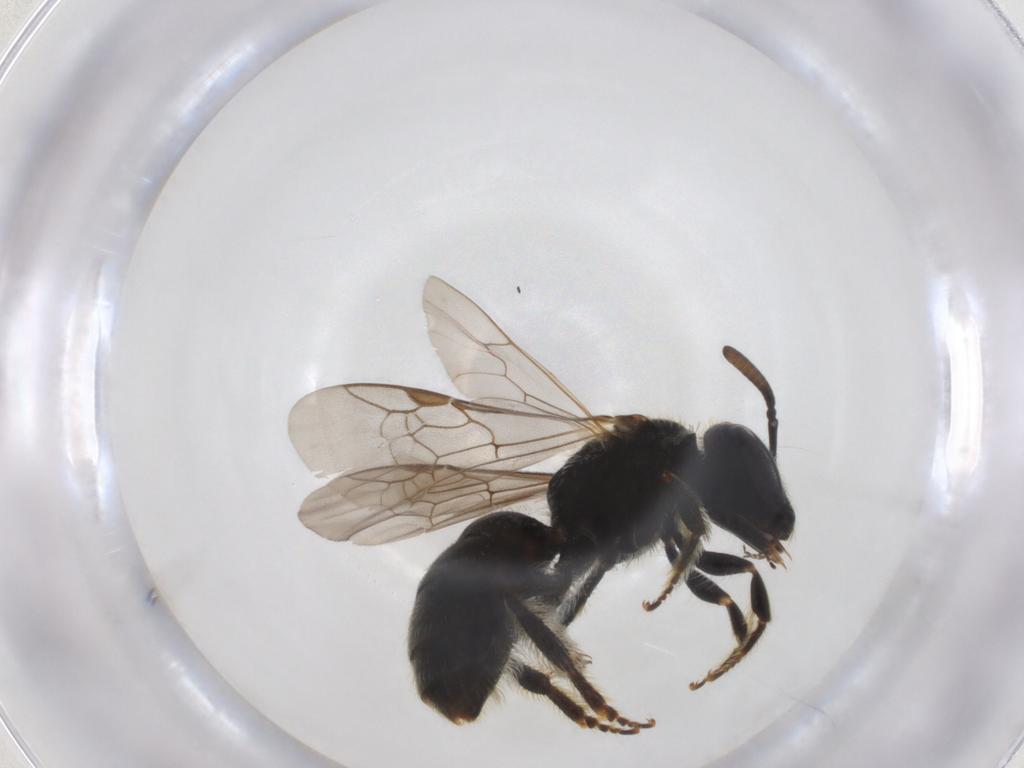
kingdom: Animalia
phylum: Arthropoda
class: Insecta
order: Hymenoptera
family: Halictidae
